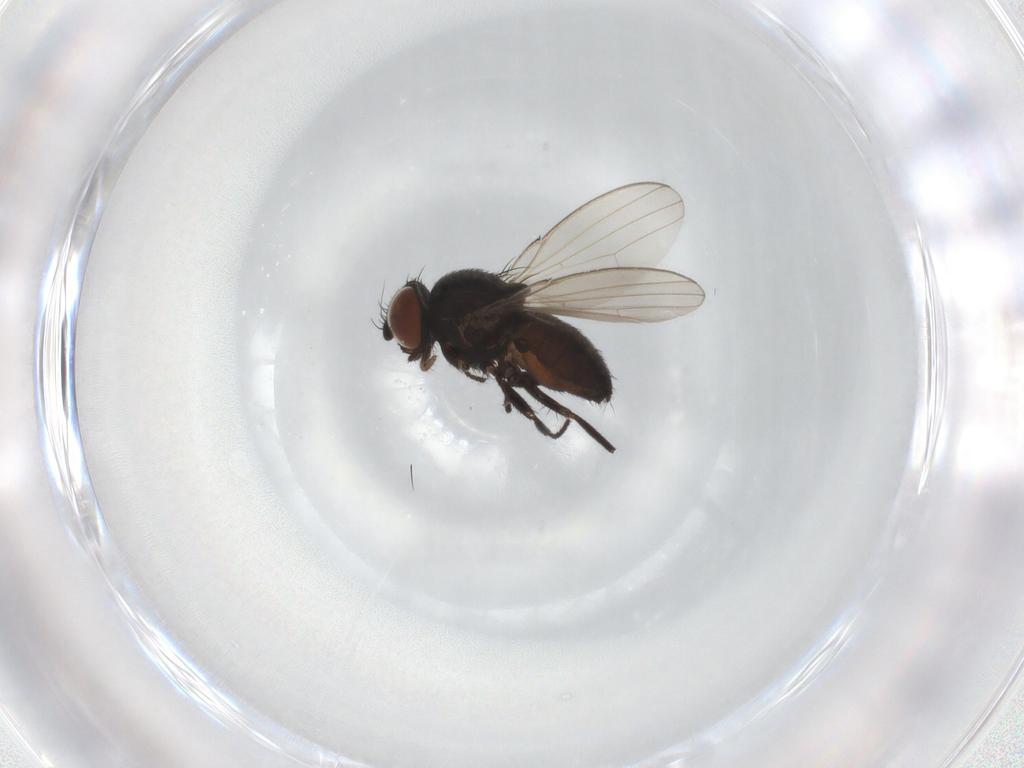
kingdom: Animalia
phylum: Arthropoda
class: Insecta
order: Diptera
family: Milichiidae
